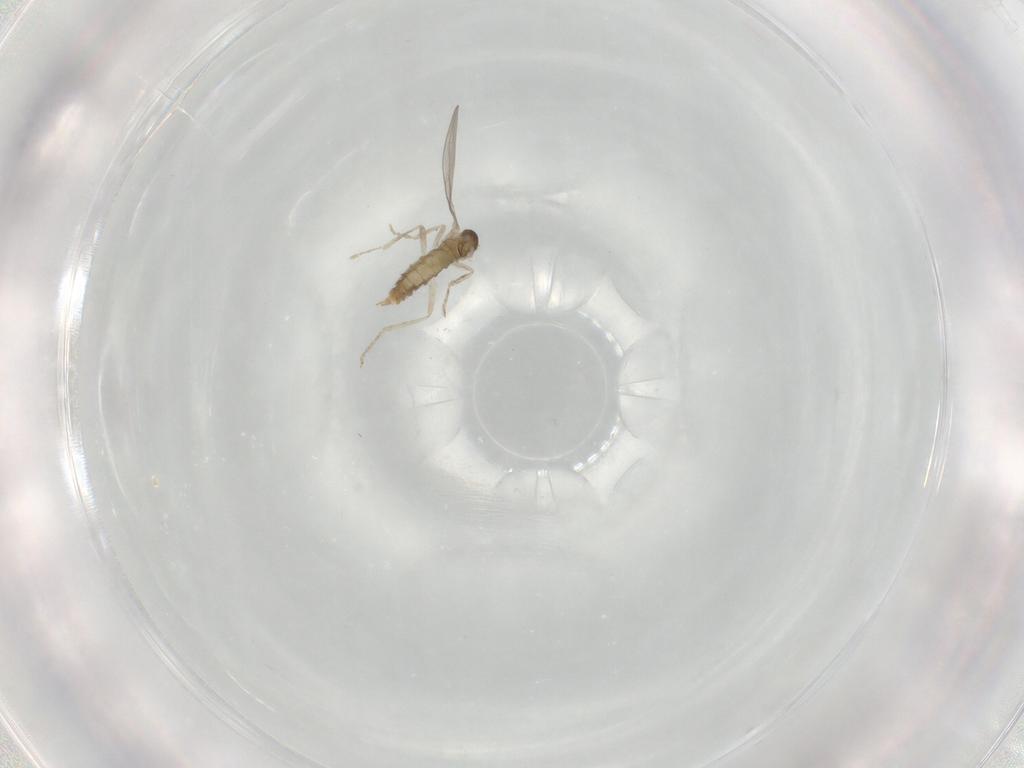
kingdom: Animalia
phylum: Arthropoda
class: Insecta
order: Diptera
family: Cecidomyiidae
